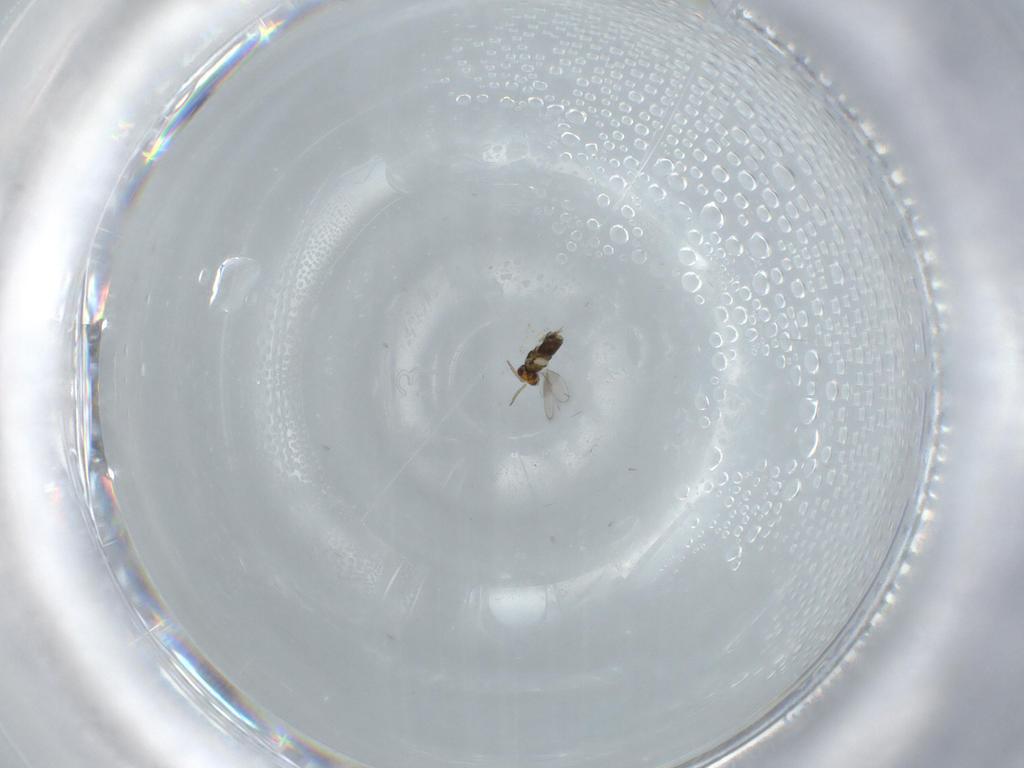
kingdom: Animalia
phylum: Arthropoda
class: Insecta
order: Hymenoptera
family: Aphelinidae
